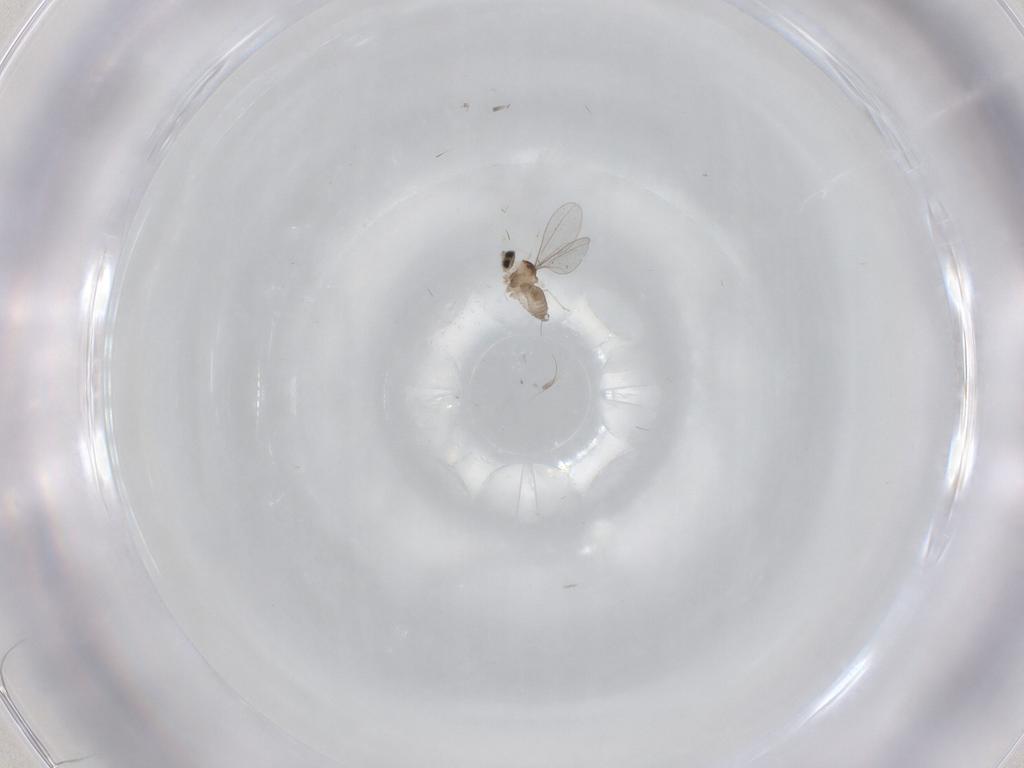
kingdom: Animalia
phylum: Arthropoda
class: Insecta
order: Diptera
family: Cecidomyiidae
